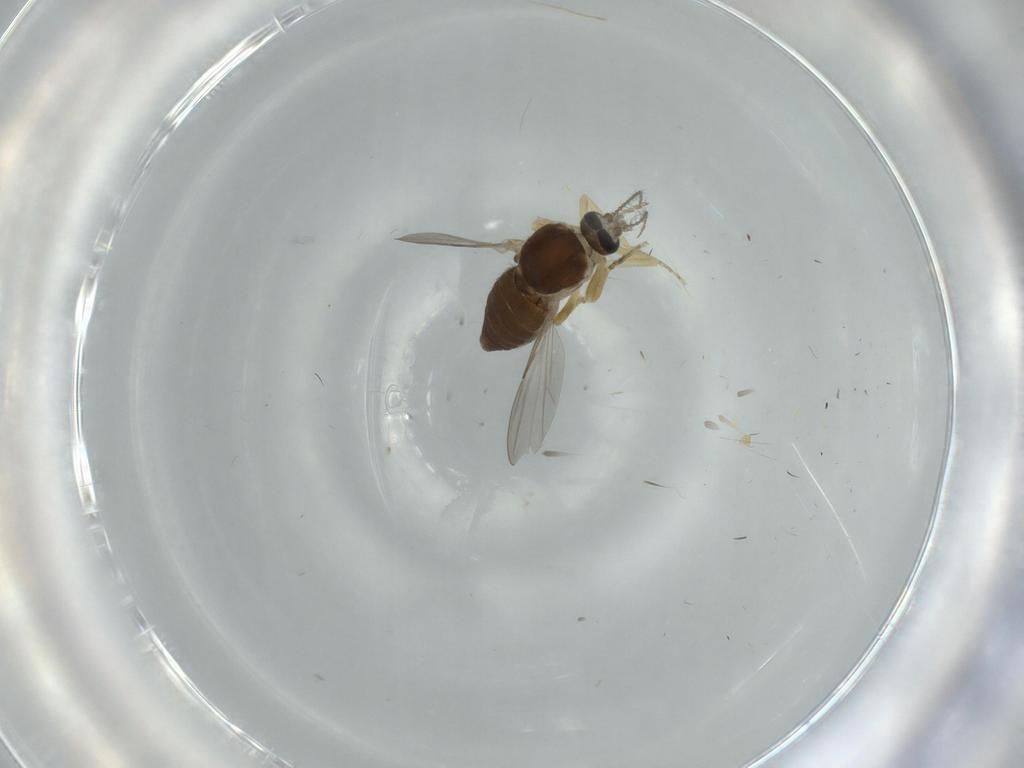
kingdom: Animalia
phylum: Arthropoda
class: Insecta
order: Diptera
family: Ceratopogonidae
